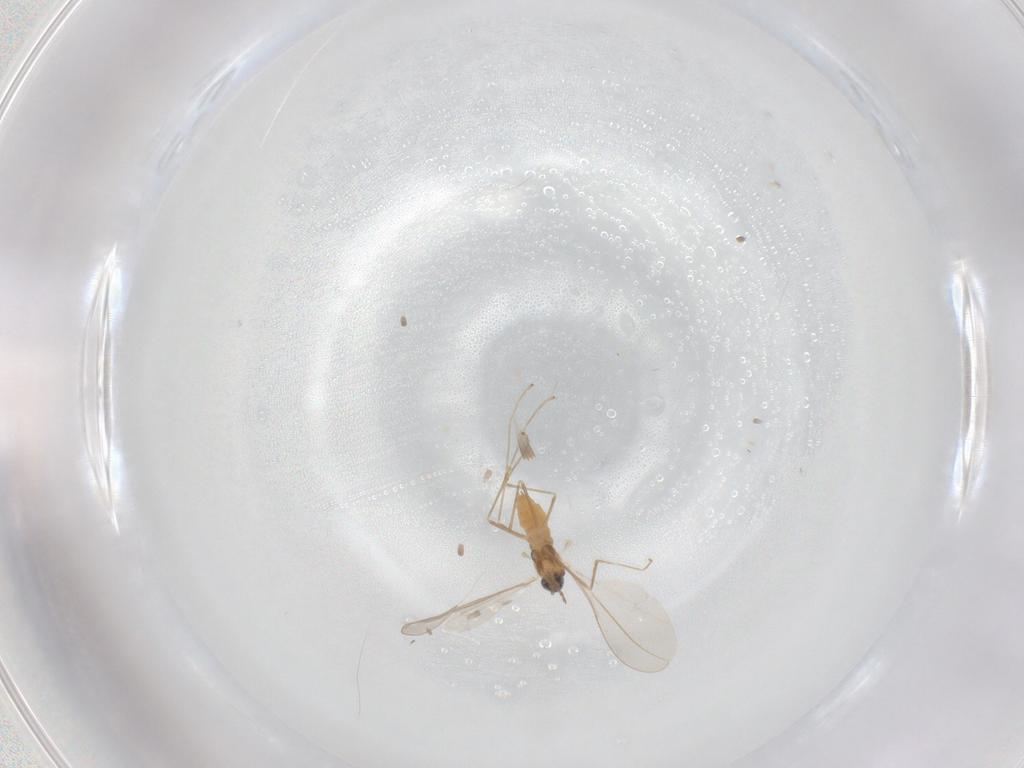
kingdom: Animalia
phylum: Arthropoda
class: Insecta
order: Diptera
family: Cecidomyiidae
